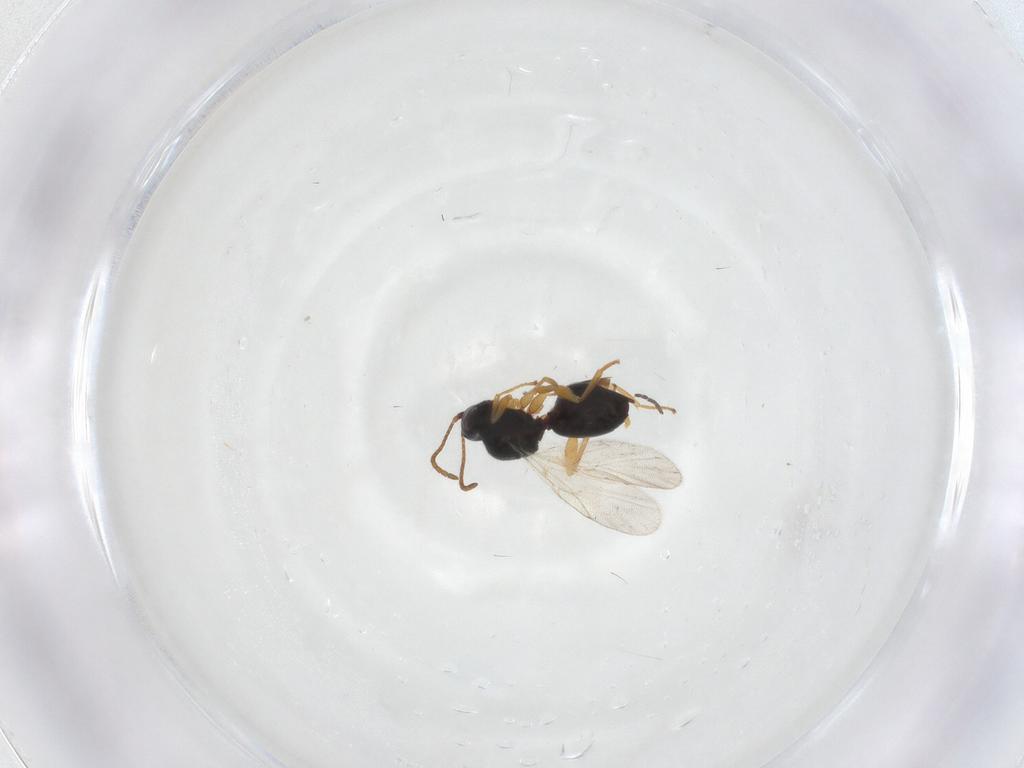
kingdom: Animalia
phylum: Arthropoda
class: Insecta
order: Hymenoptera
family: Cynipidae
